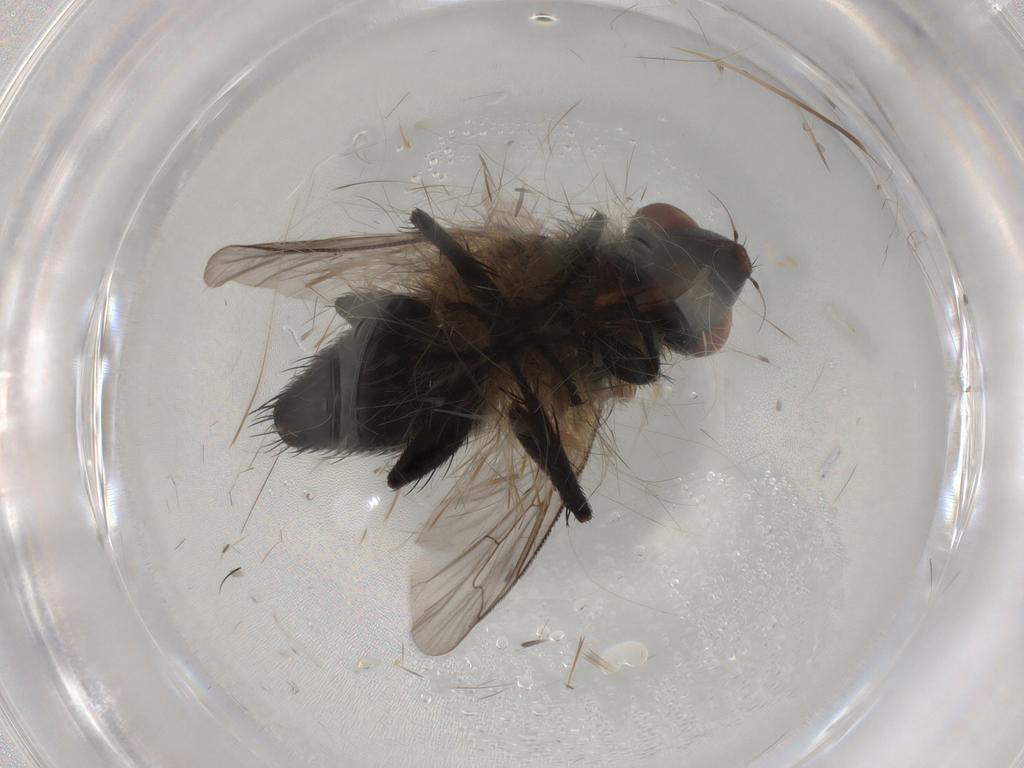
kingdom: Animalia
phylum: Arthropoda
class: Insecta
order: Diptera
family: Sarcophagidae
